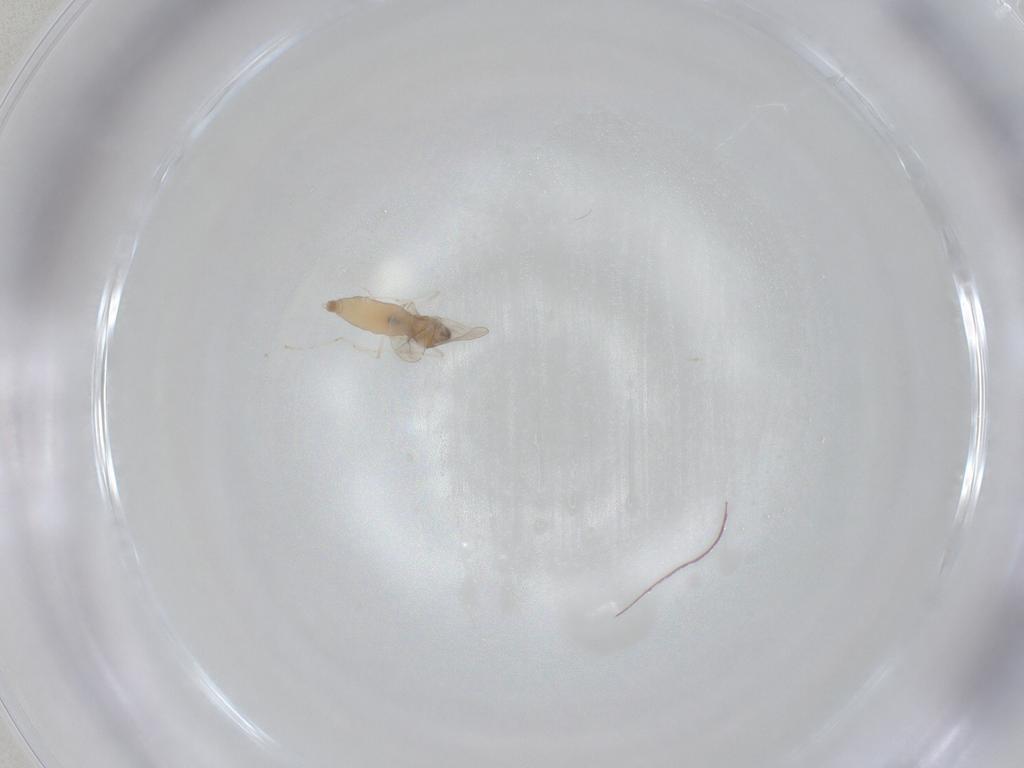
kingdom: Animalia
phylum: Arthropoda
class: Insecta
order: Diptera
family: Cecidomyiidae
